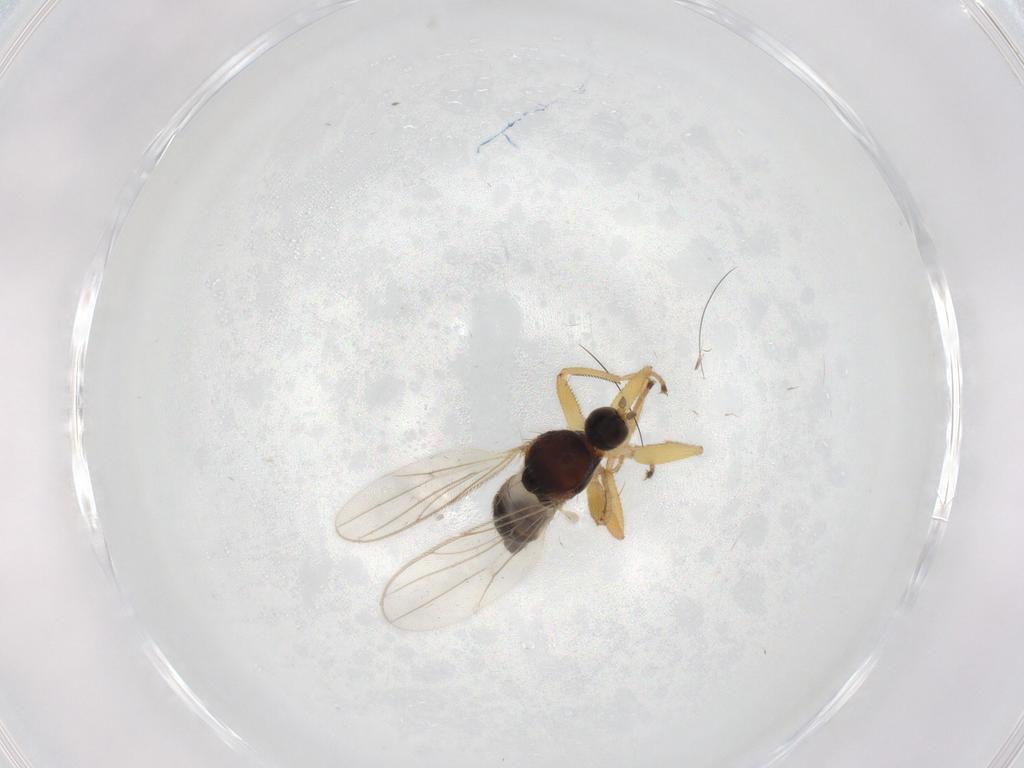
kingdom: Animalia
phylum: Arthropoda
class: Insecta
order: Diptera
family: Hybotidae
